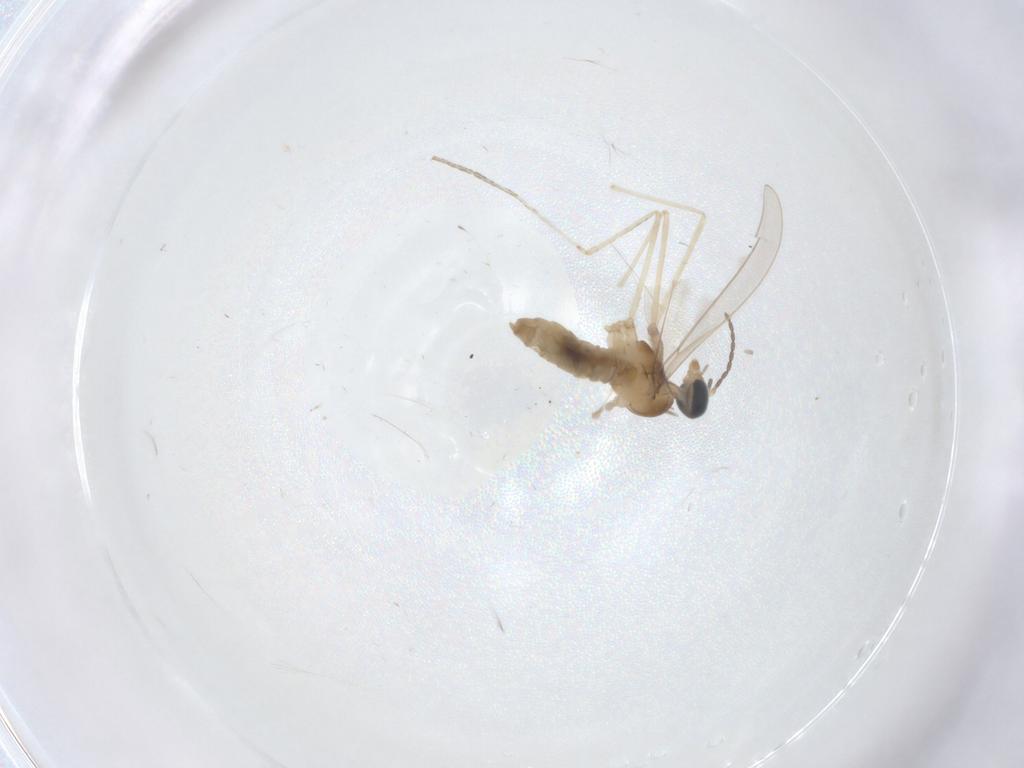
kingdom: Animalia
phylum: Arthropoda
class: Insecta
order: Diptera
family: Cecidomyiidae
